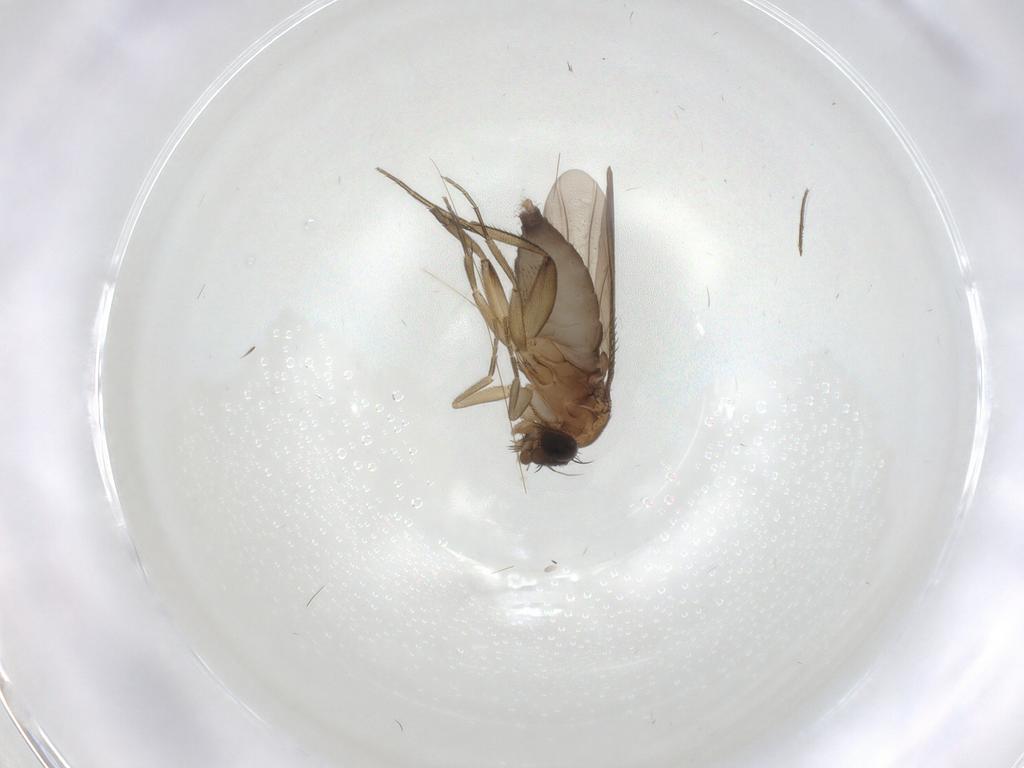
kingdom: Animalia
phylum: Arthropoda
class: Insecta
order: Diptera
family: Phoridae
